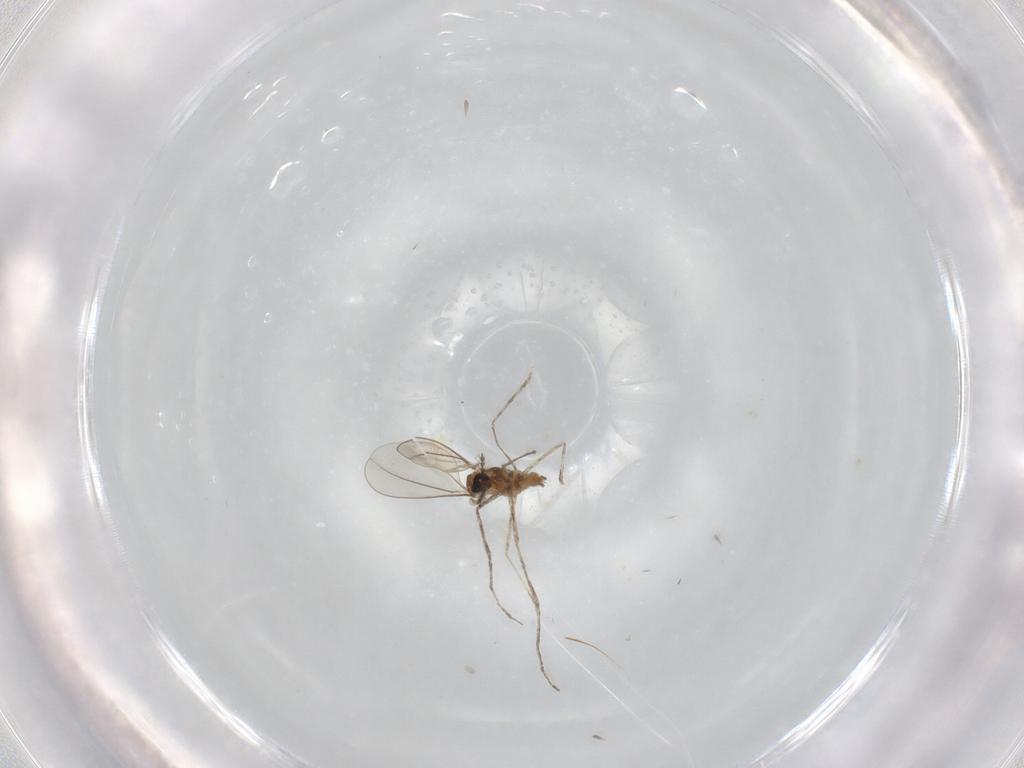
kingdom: Animalia
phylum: Arthropoda
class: Insecta
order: Diptera
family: Cecidomyiidae
